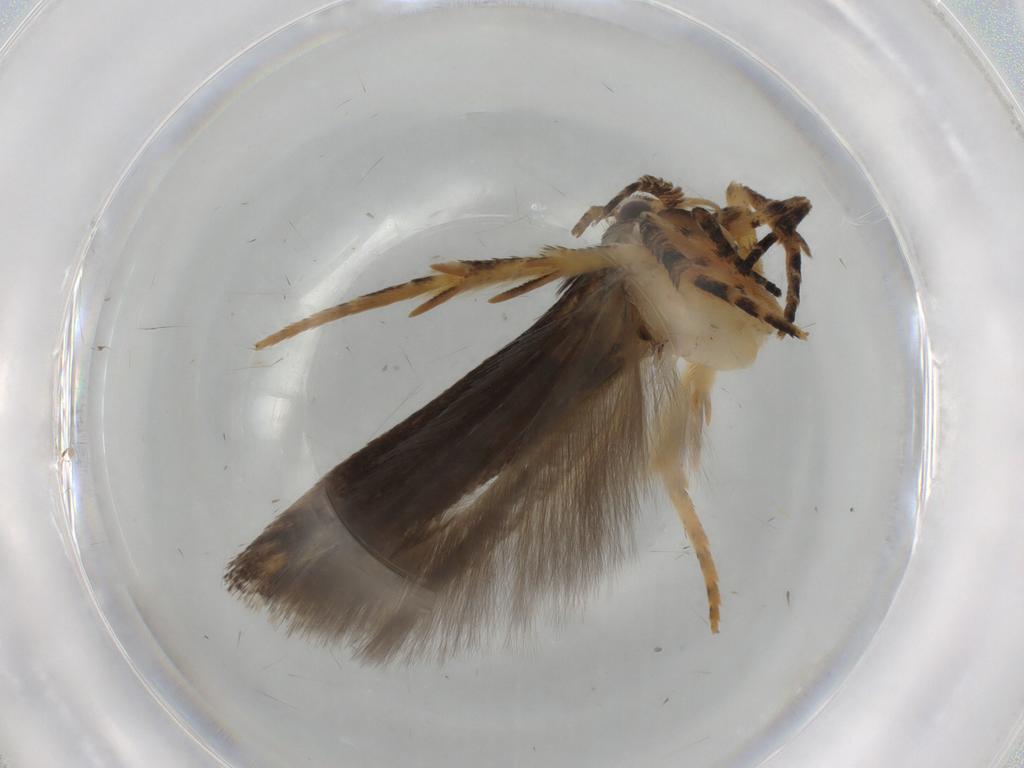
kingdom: Animalia
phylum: Arthropoda
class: Insecta
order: Lepidoptera
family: Gelechiidae
